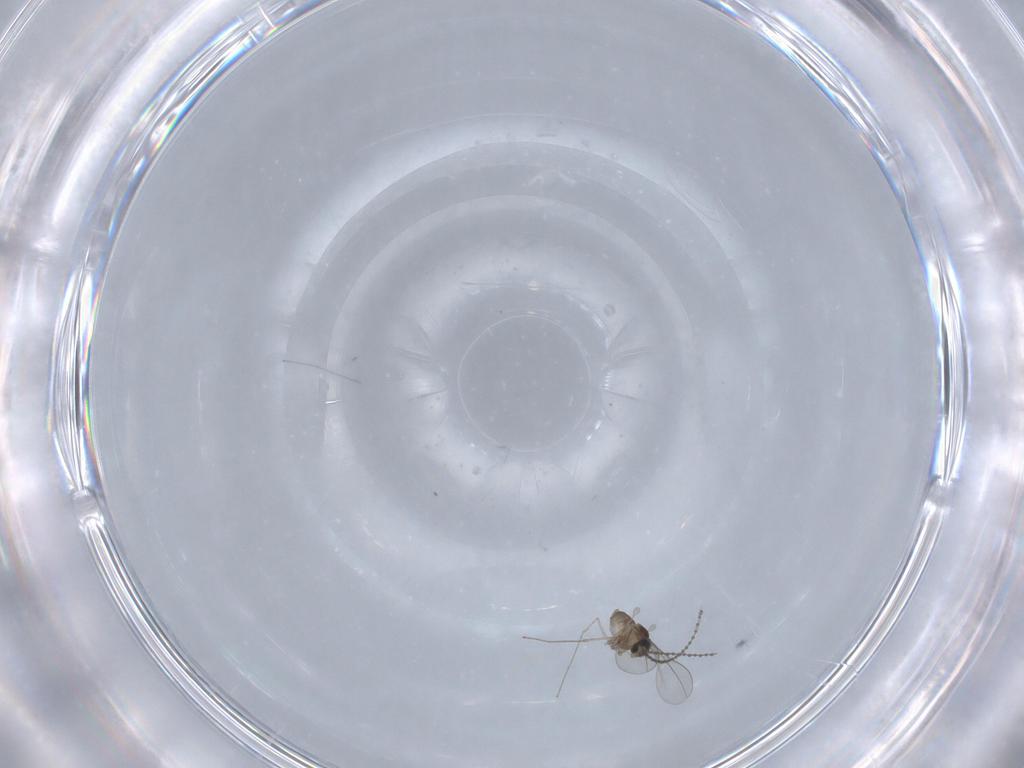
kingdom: Animalia
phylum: Arthropoda
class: Insecta
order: Diptera
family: Cecidomyiidae
